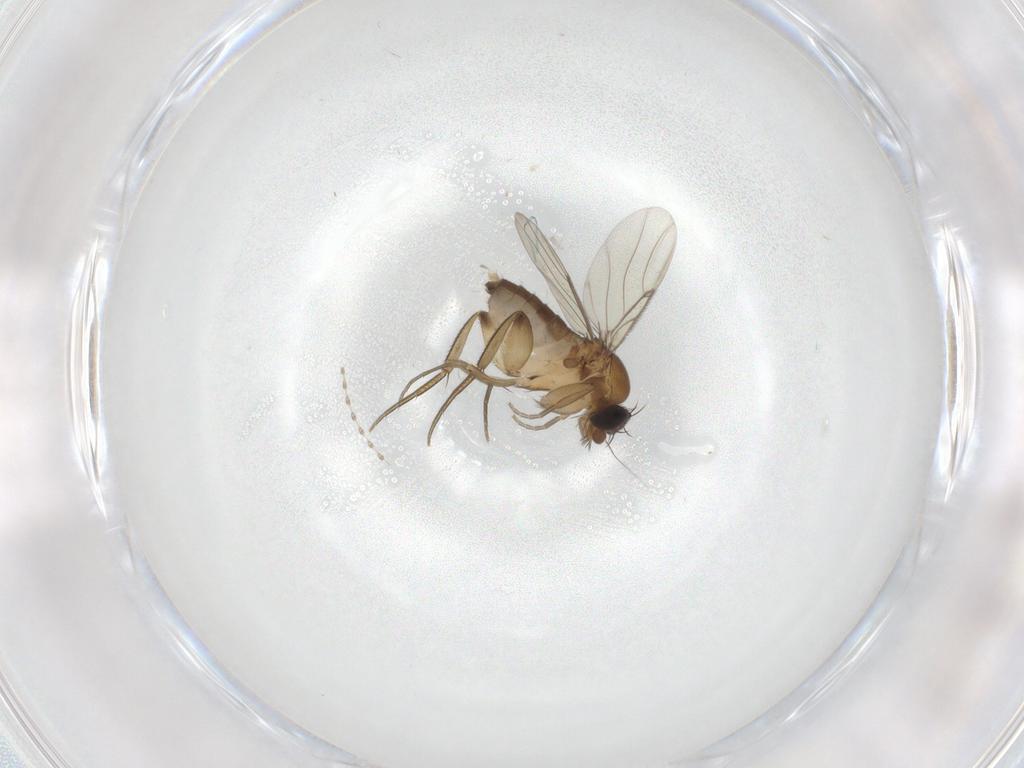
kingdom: Animalia
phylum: Arthropoda
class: Insecta
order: Diptera
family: Phoridae
